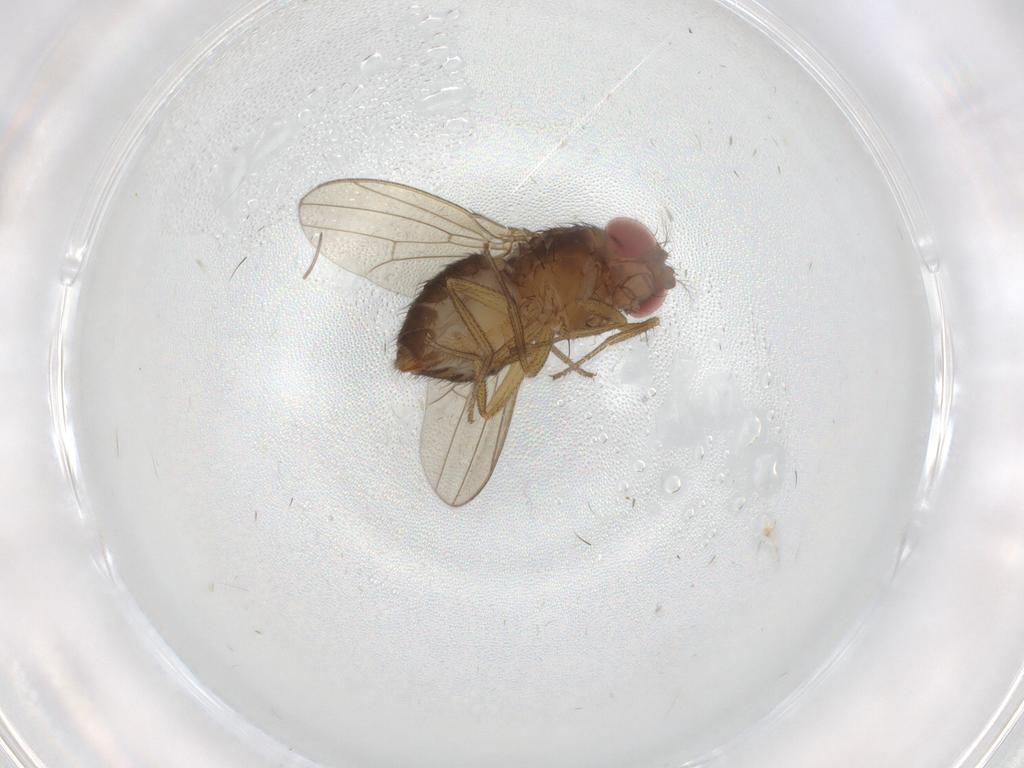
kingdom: Animalia
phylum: Arthropoda
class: Insecta
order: Diptera
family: Drosophilidae
